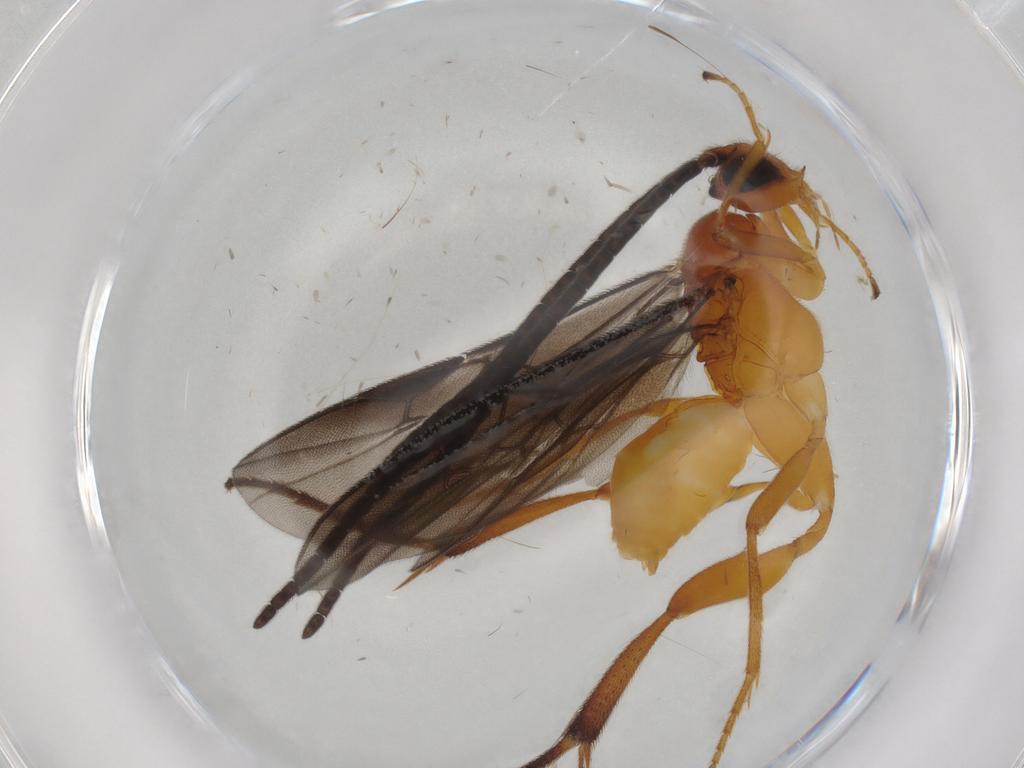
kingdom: Animalia
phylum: Arthropoda
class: Insecta
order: Hymenoptera
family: Braconidae
